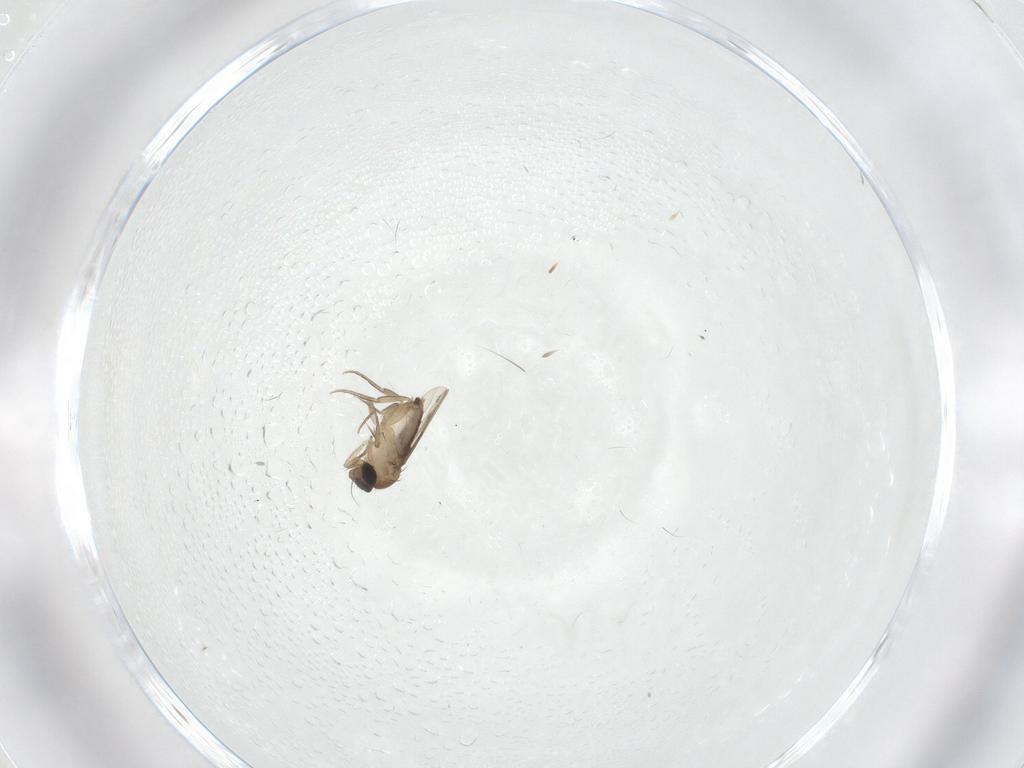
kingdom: Animalia
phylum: Arthropoda
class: Insecta
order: Diptera
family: Phoridae
